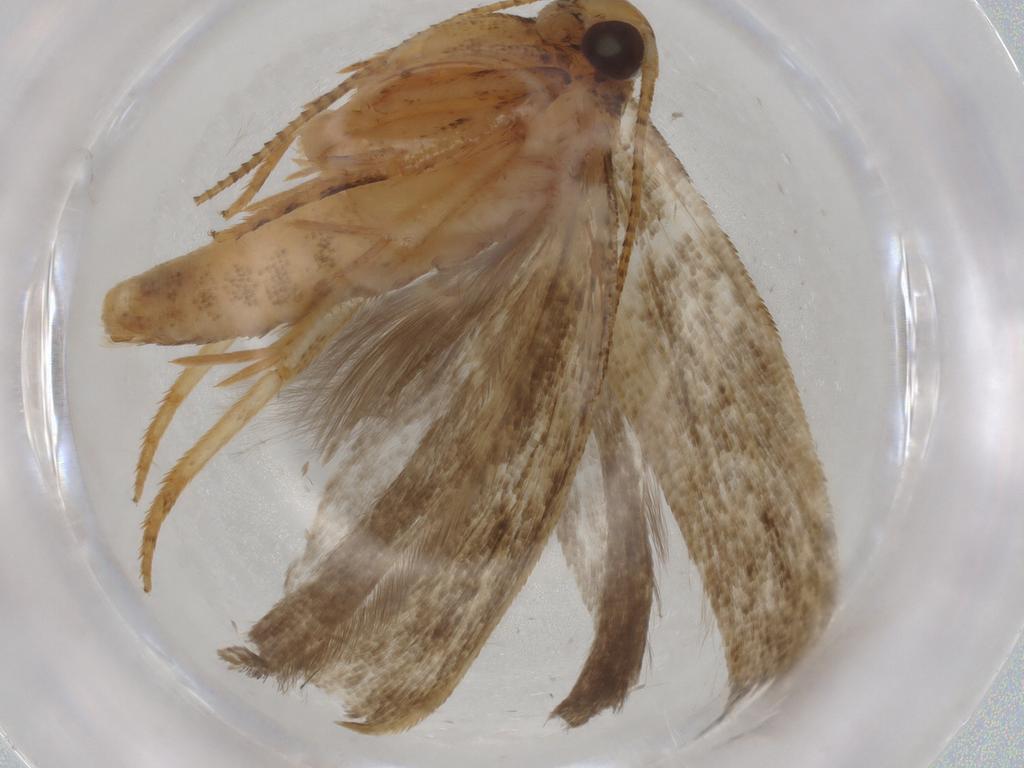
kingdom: Animalia
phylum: Arthropoda
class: Insecta
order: Lepidoptera
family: Gelechiidae
